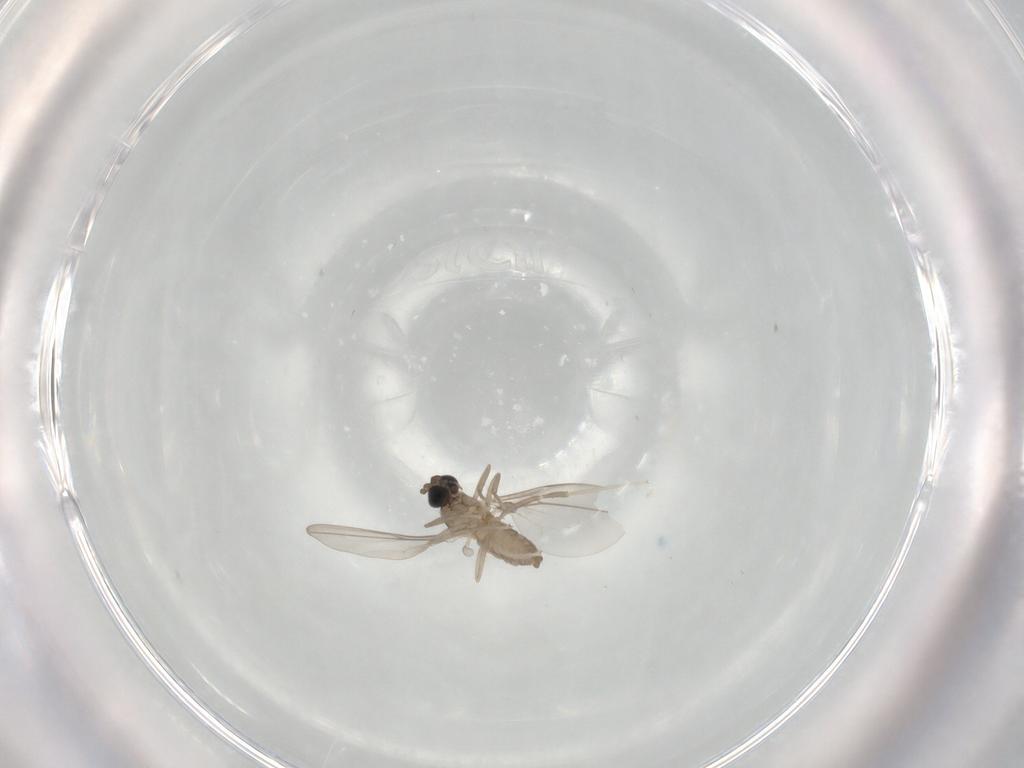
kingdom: Animalia
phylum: Arthropoda
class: Insecta
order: Diptera
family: Cecidomyiidae
